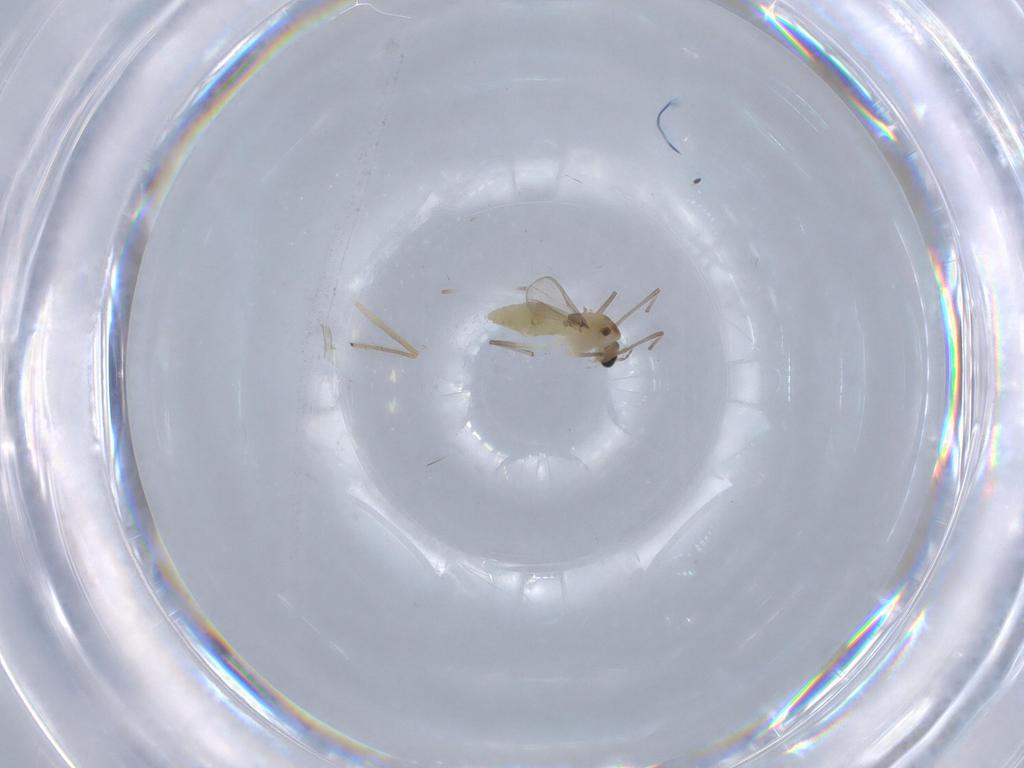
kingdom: Animalia
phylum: Arthropoda
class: Insecta
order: Diptera
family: Chironomidae
